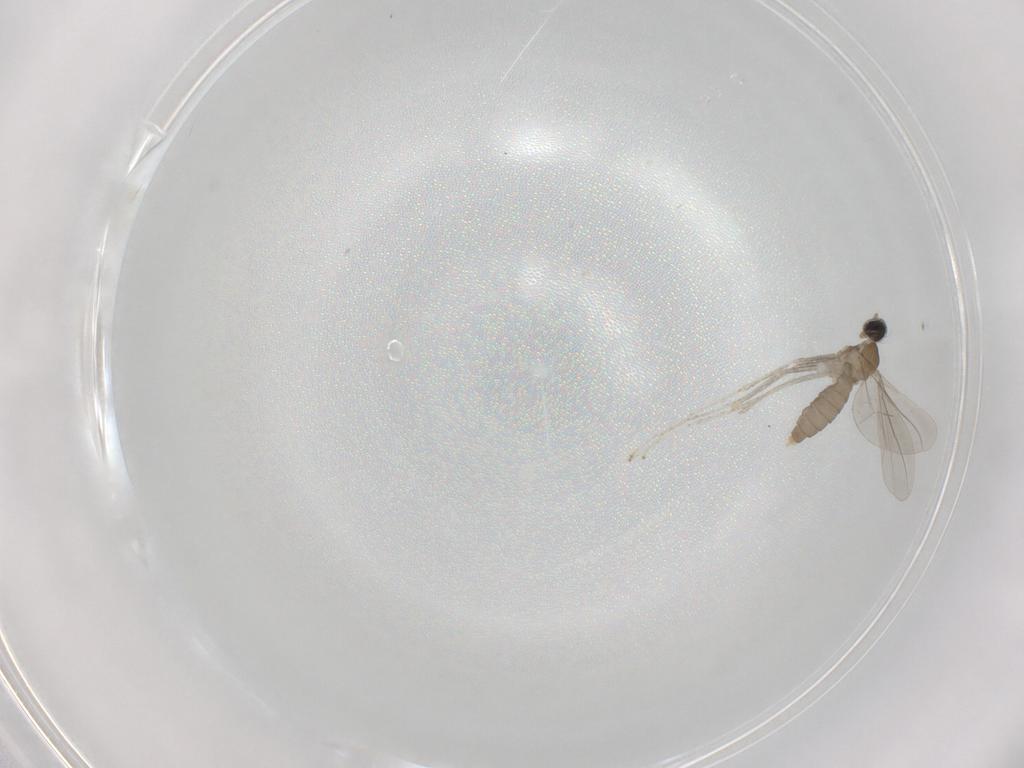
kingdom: Animalia
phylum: Arthropoda
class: Insecta
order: Diptera
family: Cecidomyiidae
